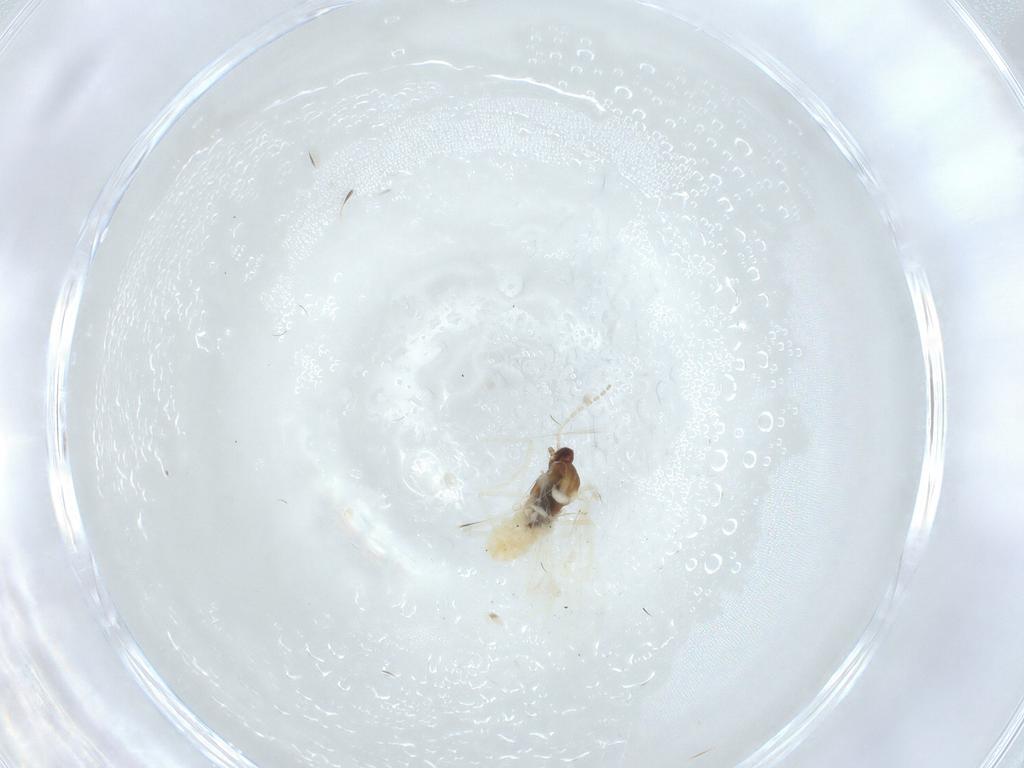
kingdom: Animalia
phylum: Arthropoda
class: Insecta
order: Diptera
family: Cecidomyiidae
